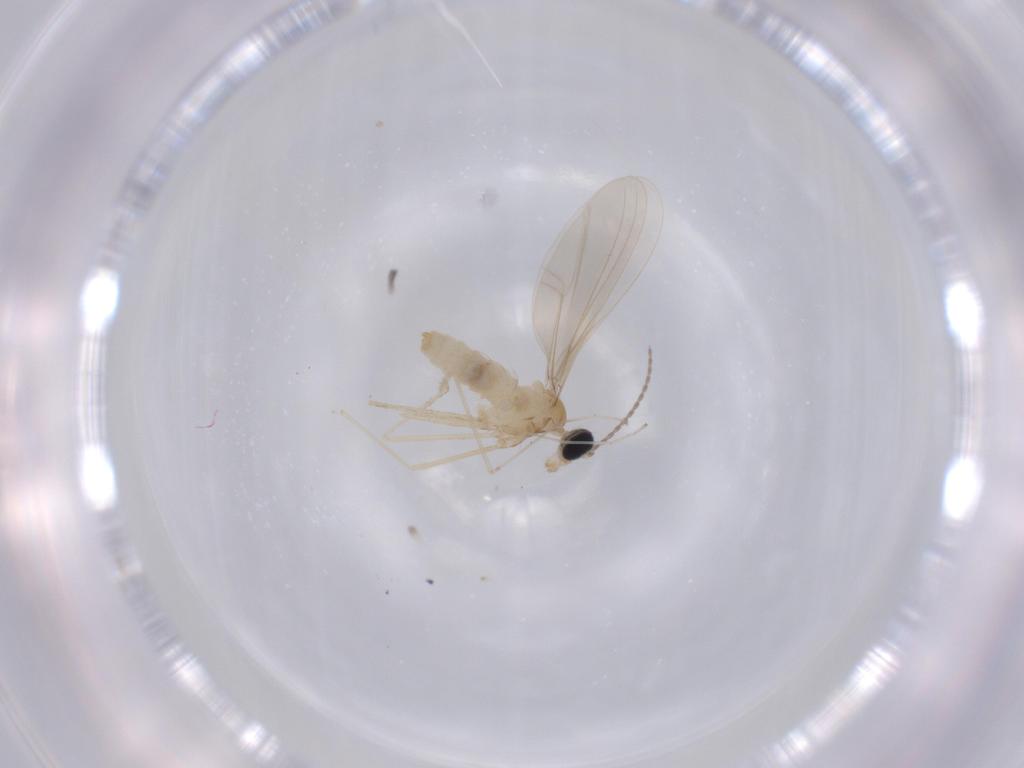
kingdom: Animalia
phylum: Arthropoda
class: Insecta
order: Diptera
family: Cecidomyiidae
